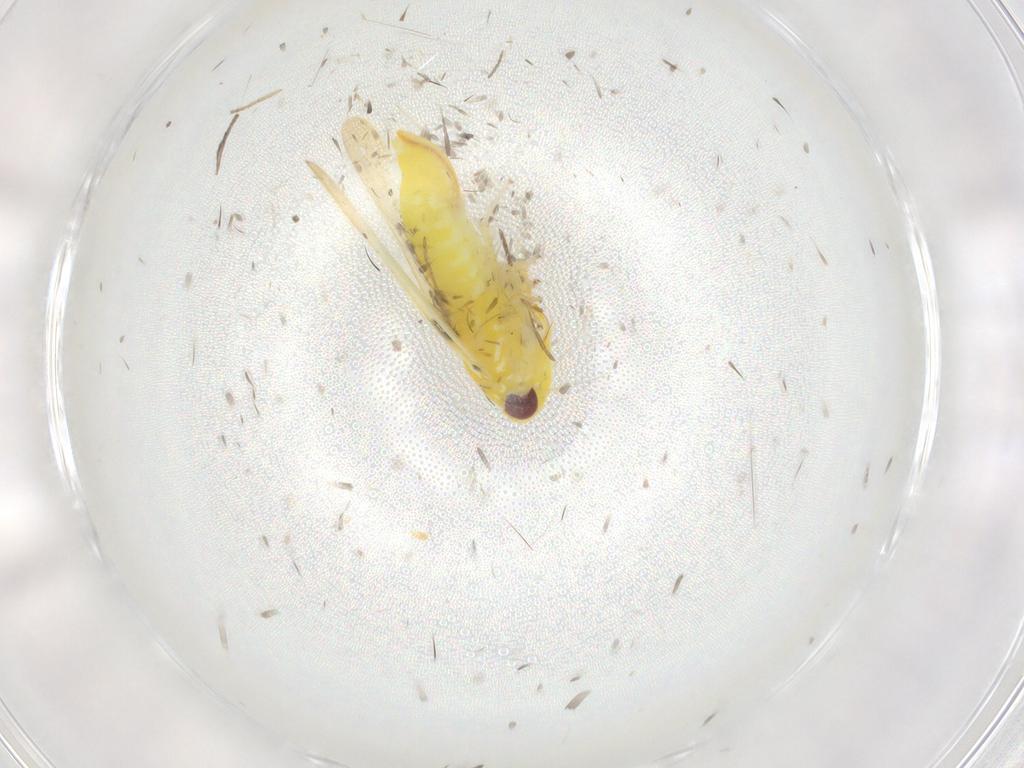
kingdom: Animalia
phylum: Arthropoda
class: Insecta
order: Hemiptera
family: Cicadellidae
